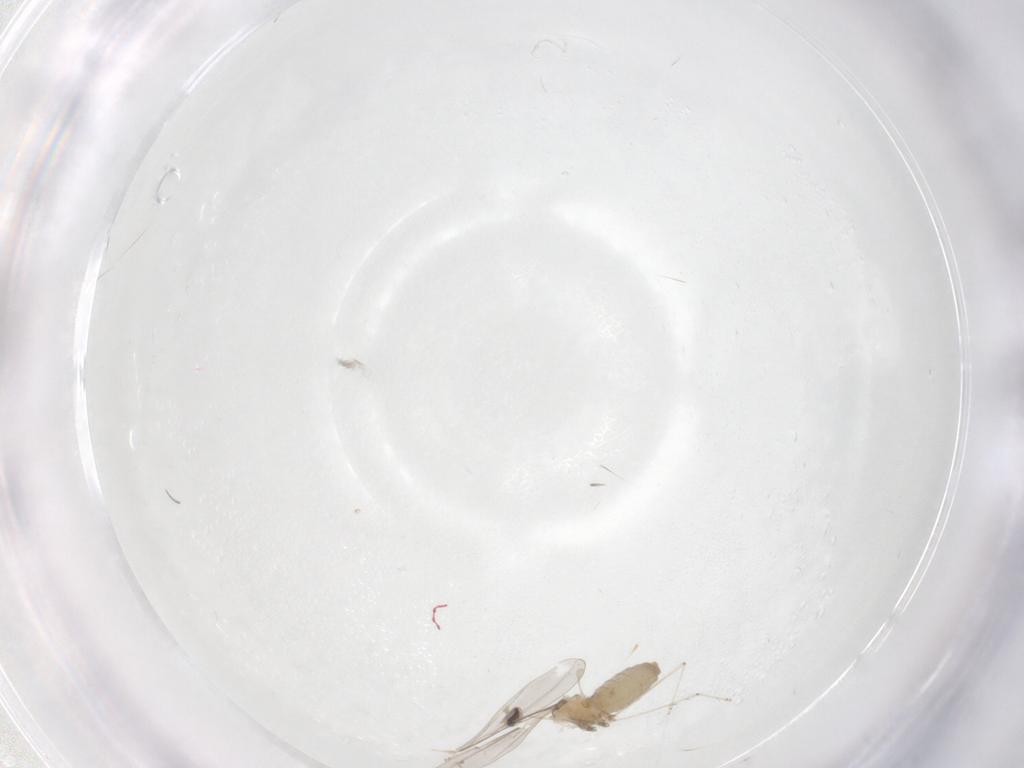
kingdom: Animalia
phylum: Arthropoda
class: Insecta
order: Diptera
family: Cecidomyiidae
